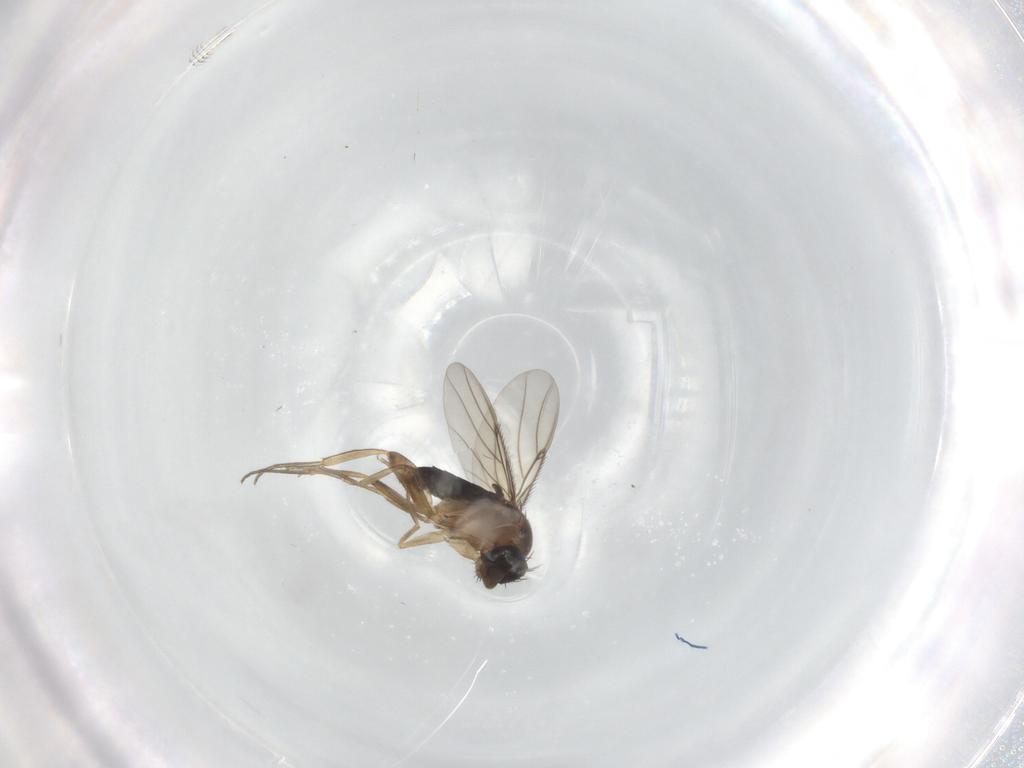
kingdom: Animalia
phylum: Arthropoda
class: Insecta
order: Diptera
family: Ceratopogonidae
